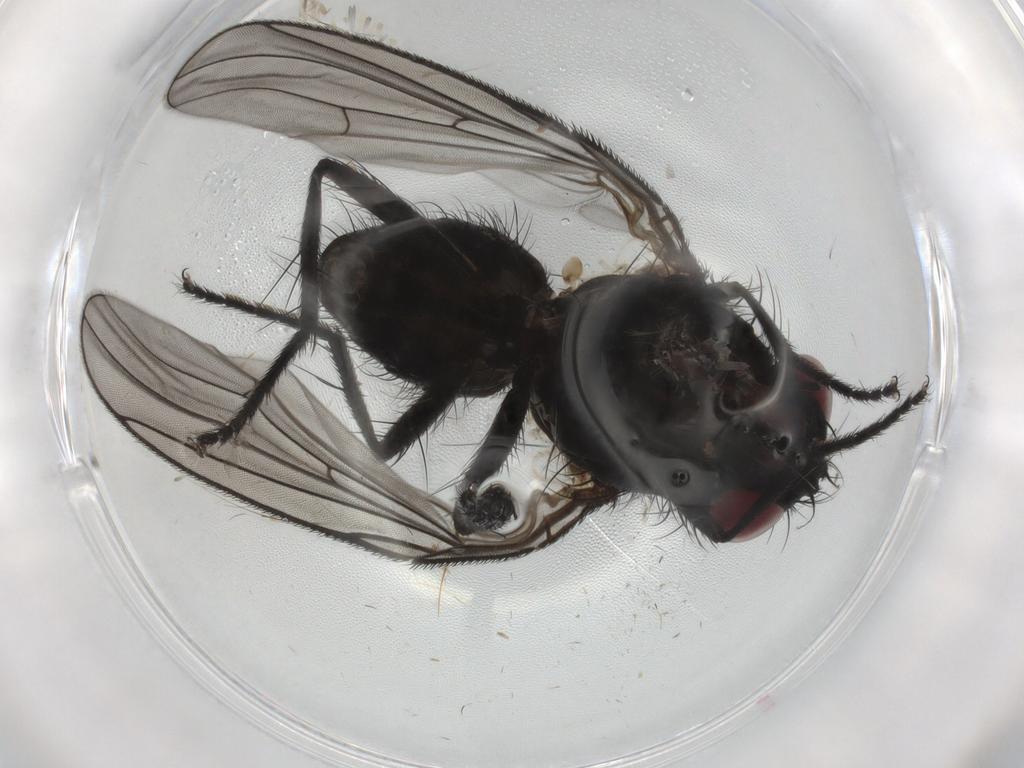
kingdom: Animalia
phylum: Arthropoda
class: Insecta
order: Diptera
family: Fannia
